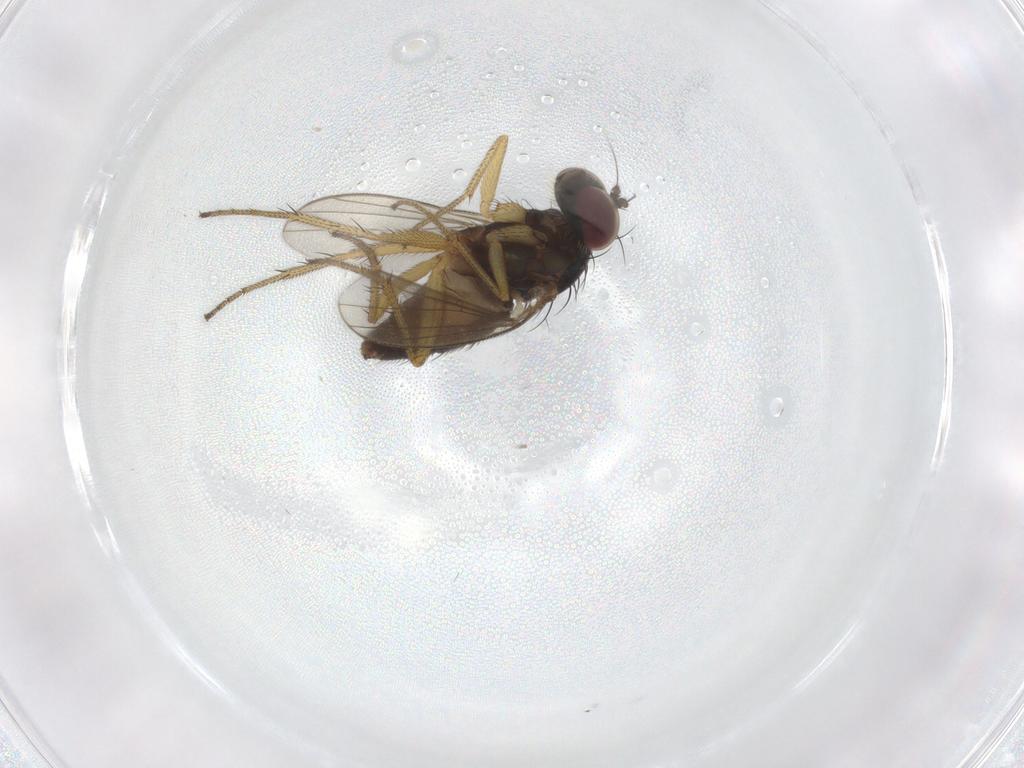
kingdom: Animalia
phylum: Arthropoda
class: Insecta
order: Diptera
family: Dolichopodidae
